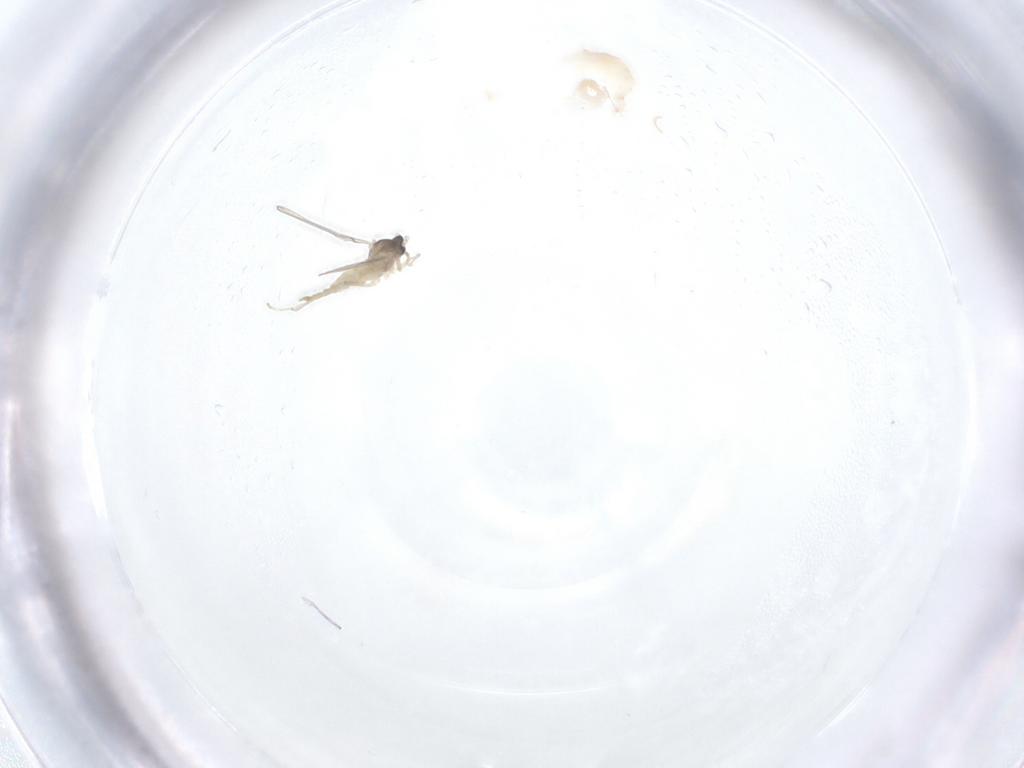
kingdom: Animalia
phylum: Arthropoda
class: Insecta
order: Diptera
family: Cecidomyiidae
